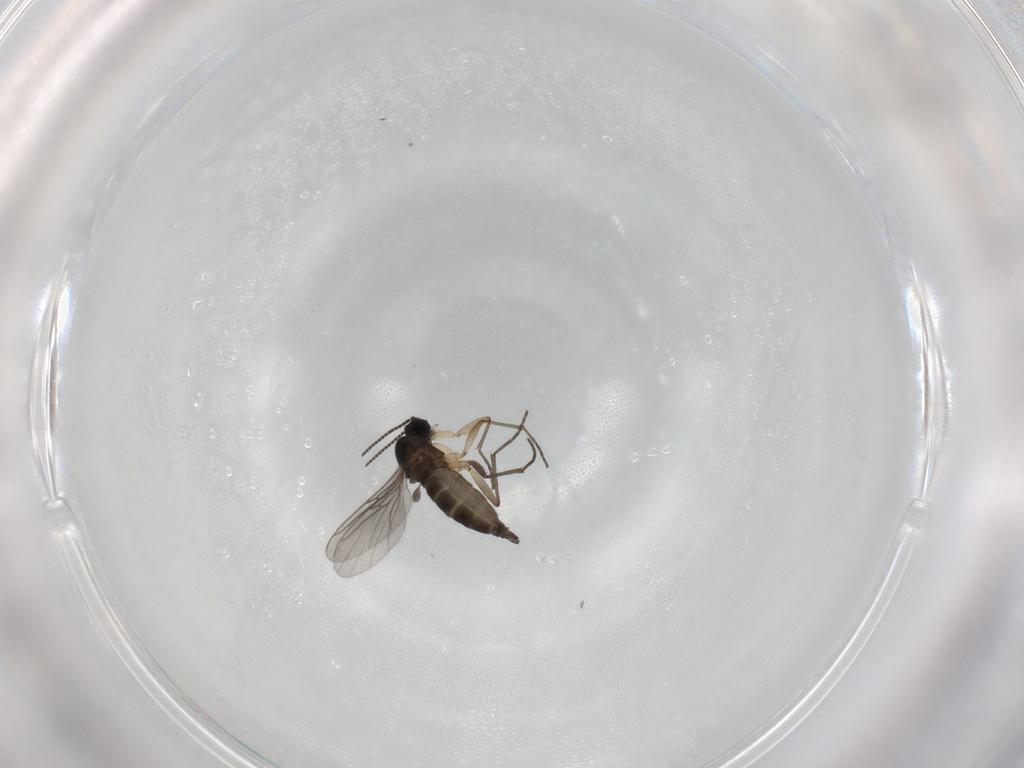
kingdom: Animalia
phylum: Arthropoda
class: Insecta
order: Diptera
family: Sciaridae
